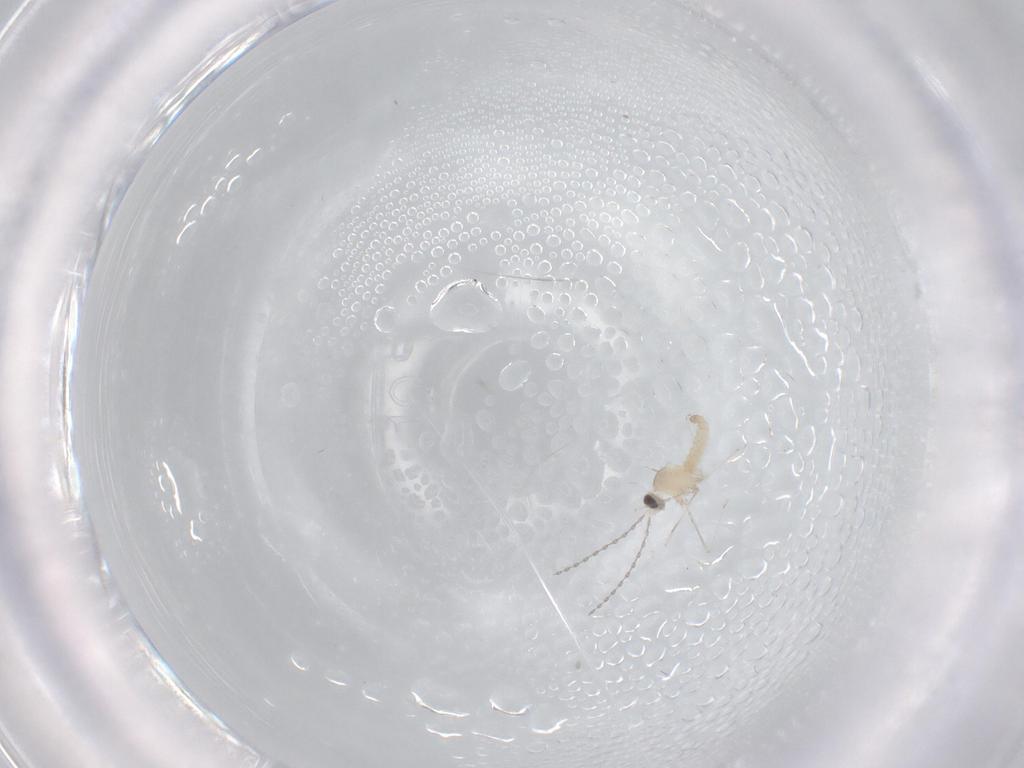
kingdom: Animalia
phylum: Arthropoda
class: Insecta
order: Diptera
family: Cecidomyiidae
